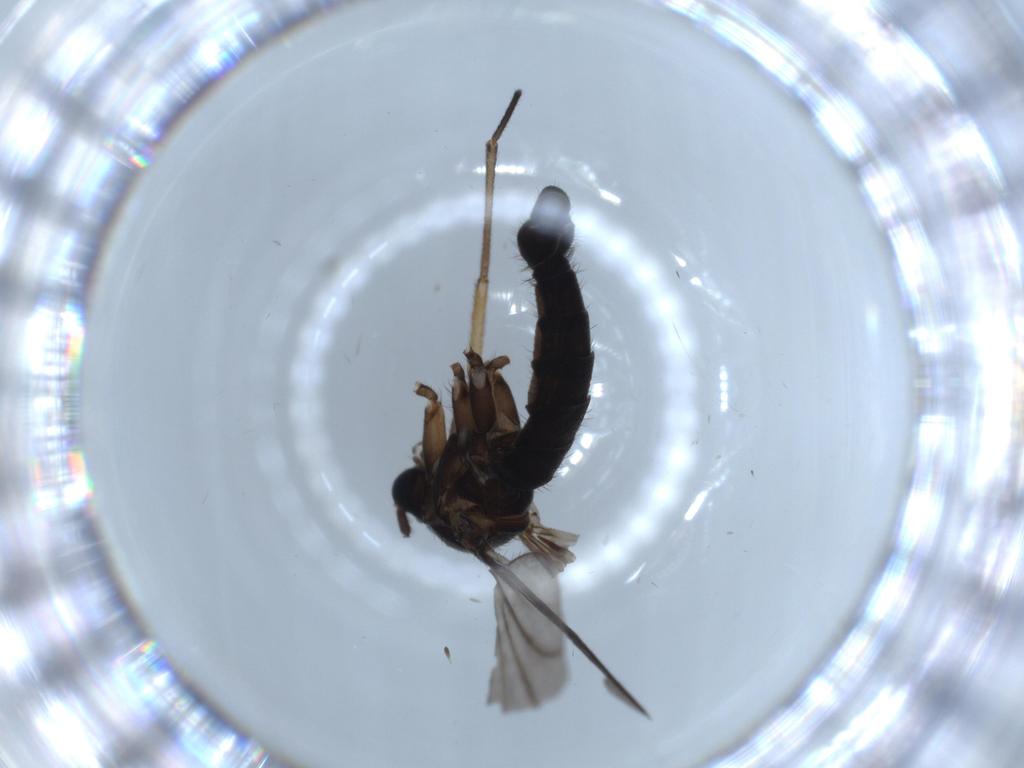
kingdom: Animalia
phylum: Arthropoda
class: Insecta
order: Diptera
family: Sciaridae
